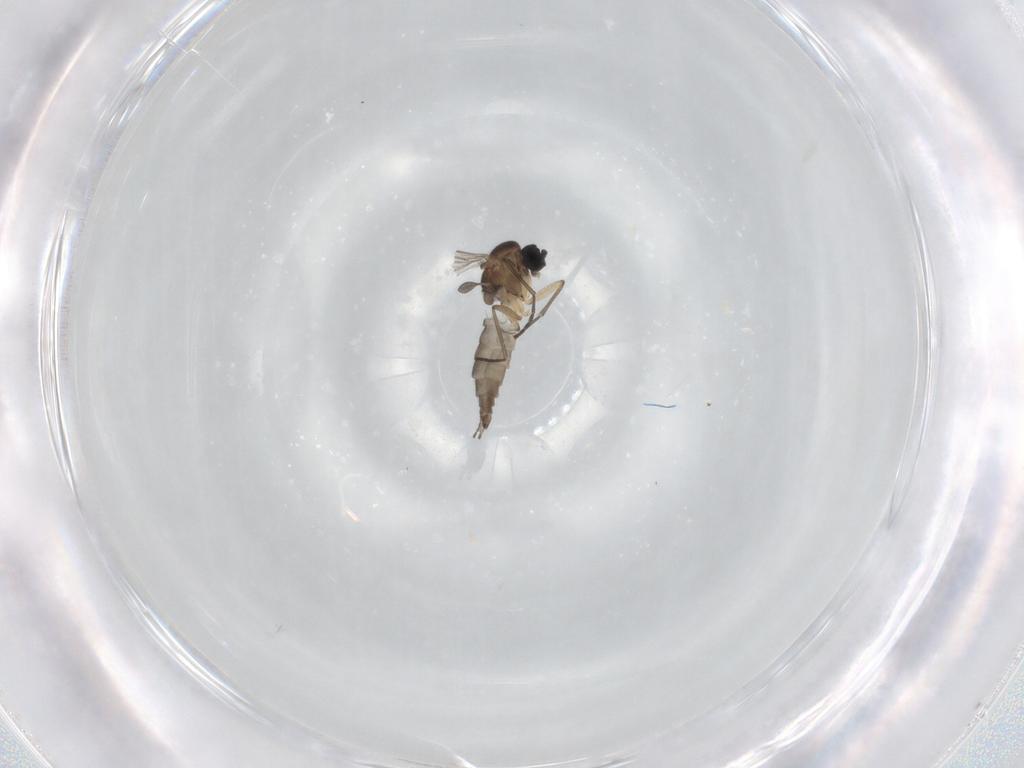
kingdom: Animalia
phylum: Arthropoda
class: Insecta
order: Diptera
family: Sciaridae
